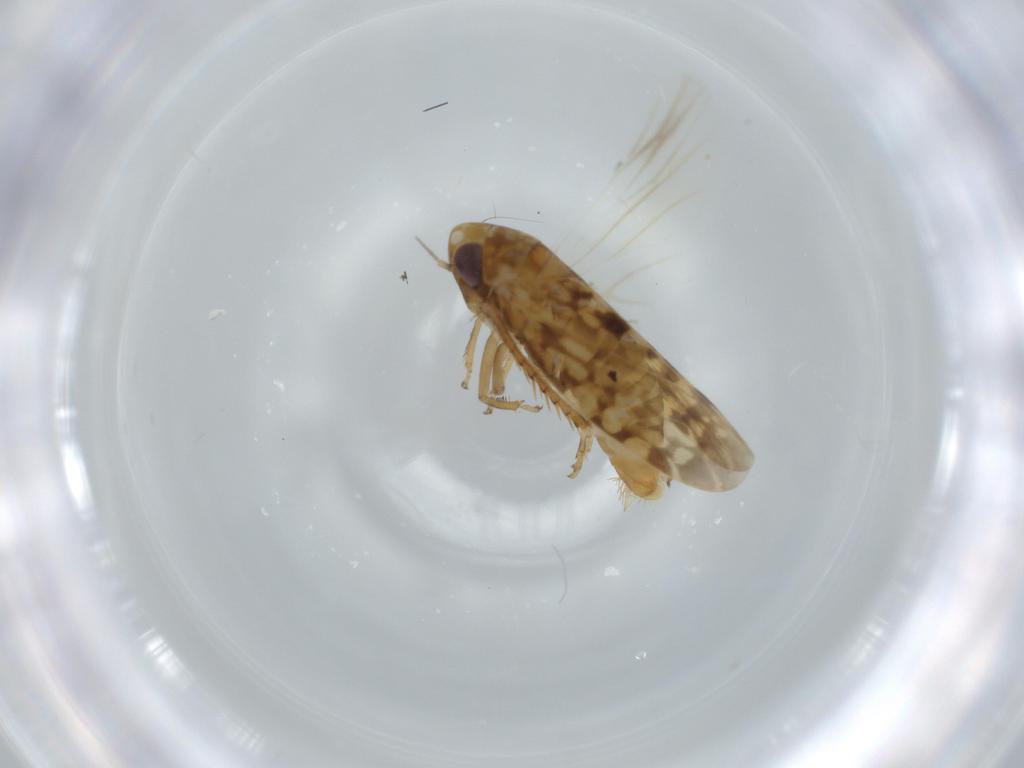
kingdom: Animalia
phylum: Arthropoda
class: Insecta
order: Hemiptera
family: Cicadellidae
